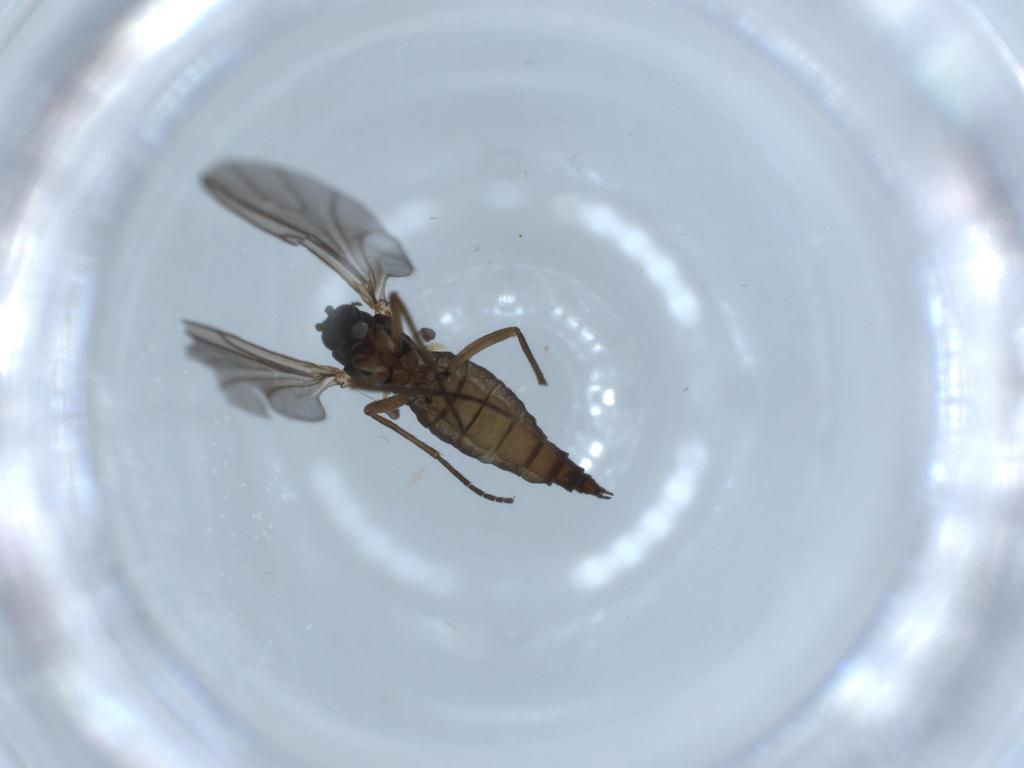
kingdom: Animalia
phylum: Arthropoda
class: Insecta
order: Diptera
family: Sciaridae
